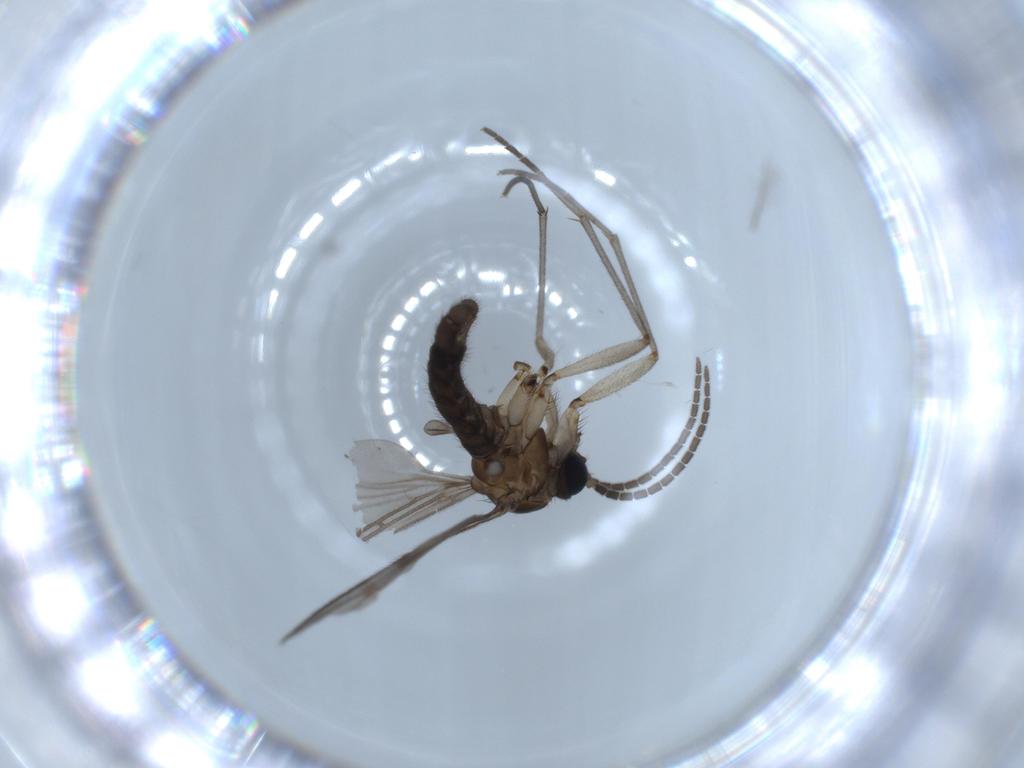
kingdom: Animalia
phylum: Arthropoda
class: Insecta
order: Diptera
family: Sciaridae
